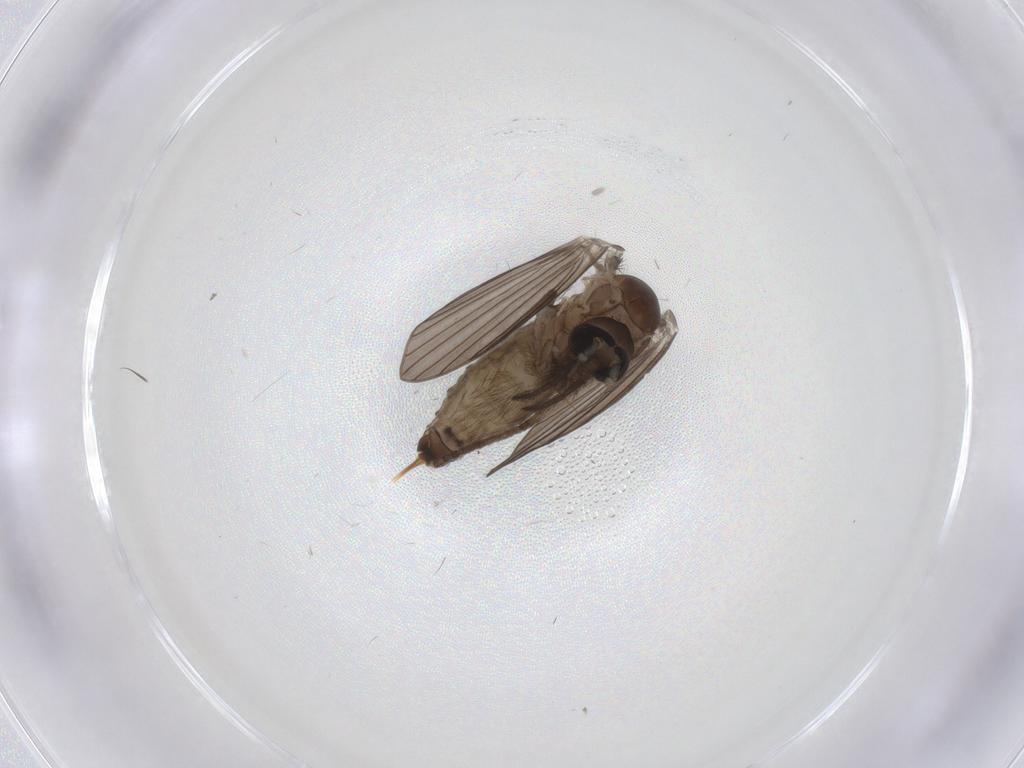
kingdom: Animalia
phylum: Arthropoda
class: Insecta
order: Diptera
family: Psychodidae
